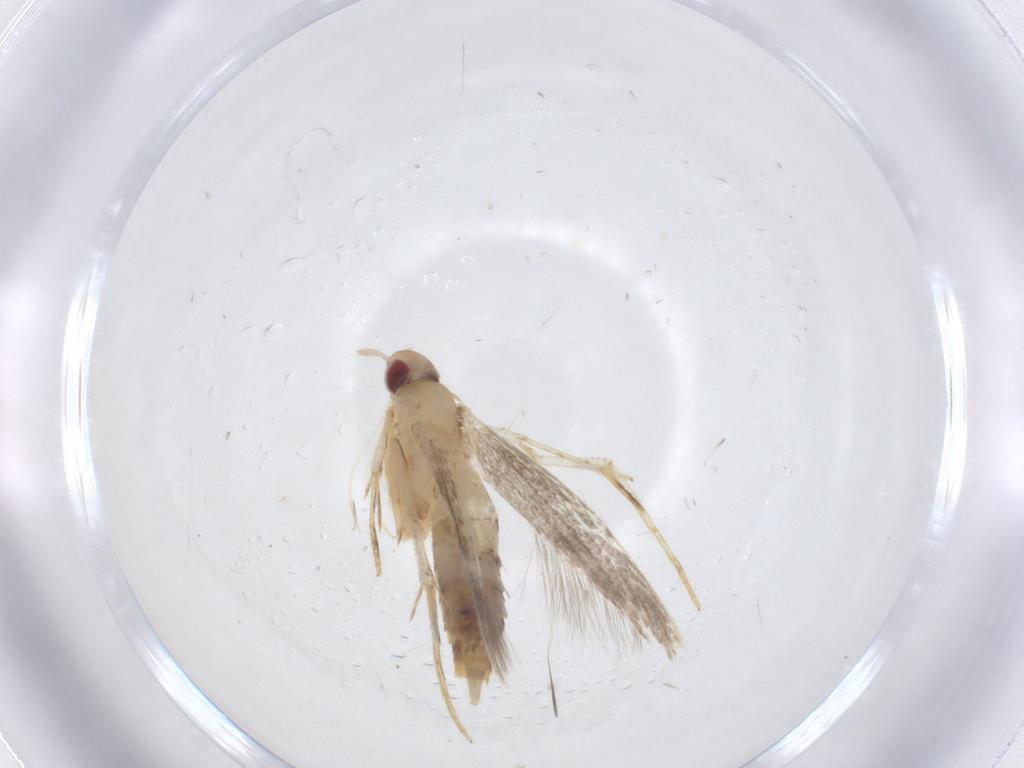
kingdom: Animalia
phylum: Arthropoda
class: Insecta
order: Lepidoptera
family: Cosmopterigidae
